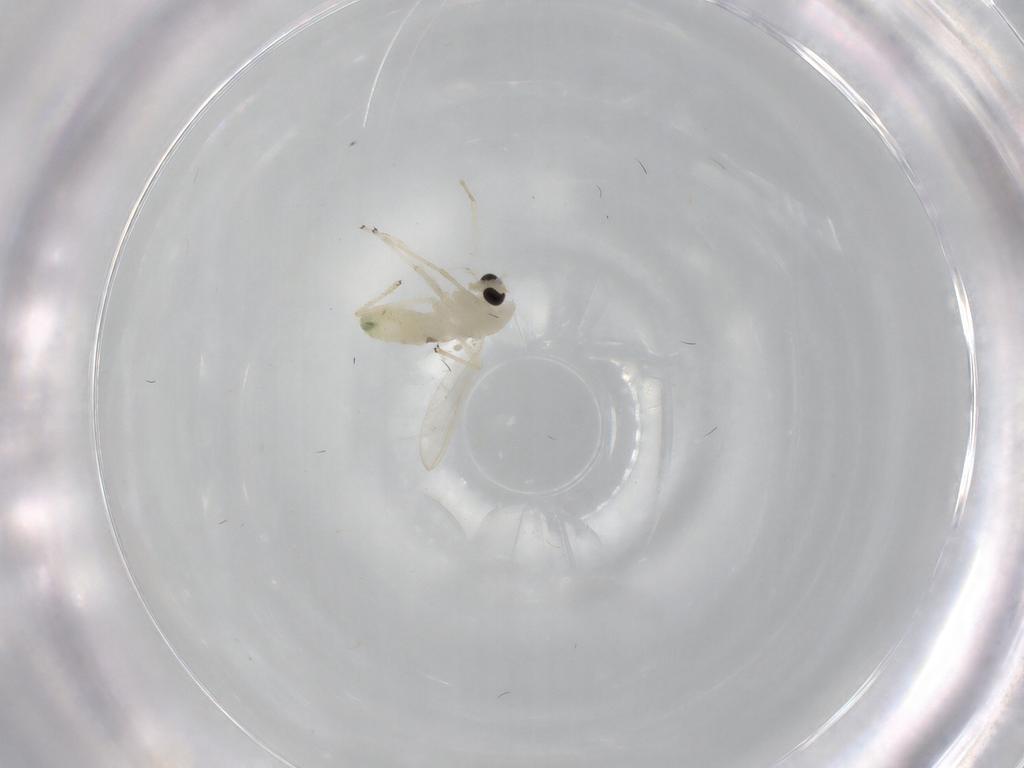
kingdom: Animalia
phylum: Arthropoda
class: Insecta
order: Diptera
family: Chironomidae
